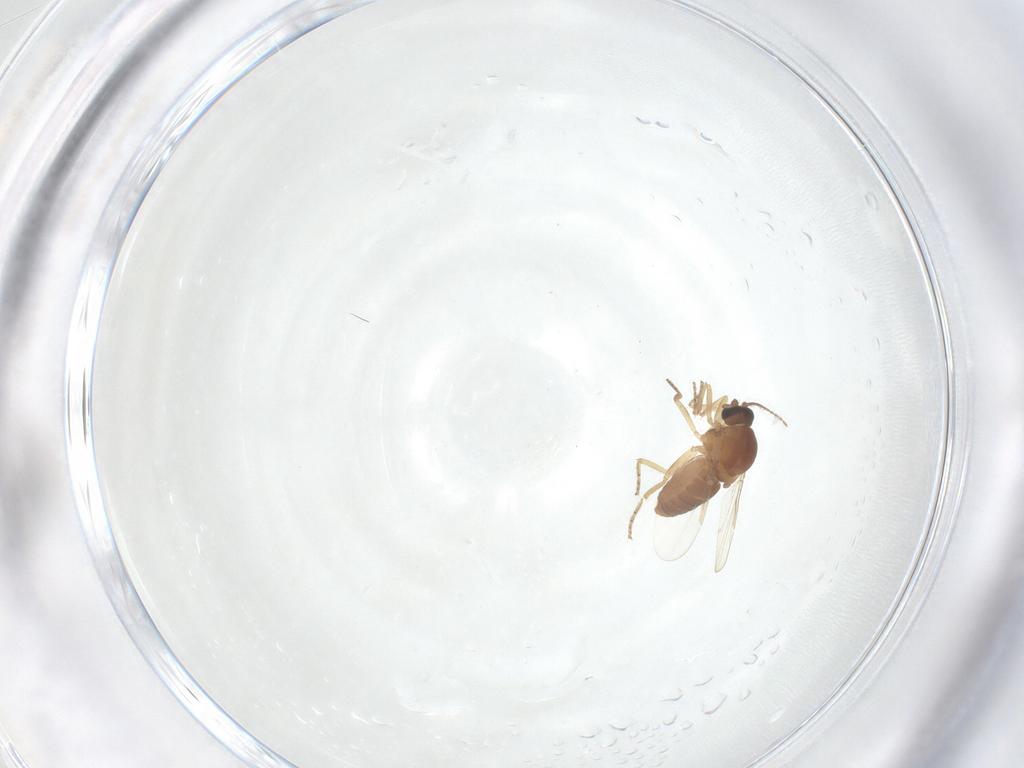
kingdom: Animalia
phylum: Arthropoda
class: Insecta
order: Diptera
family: Ceratopogonidae
